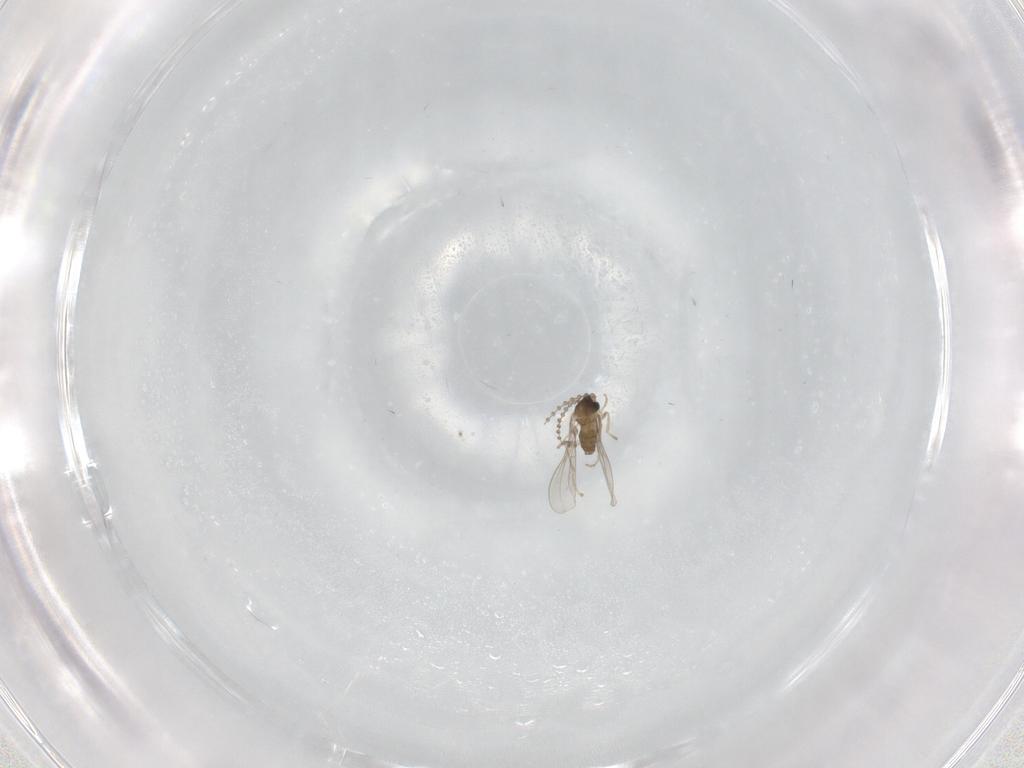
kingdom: Animalia
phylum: Arthropoda
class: Insecta
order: Diptera
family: Cecidomyiidae
